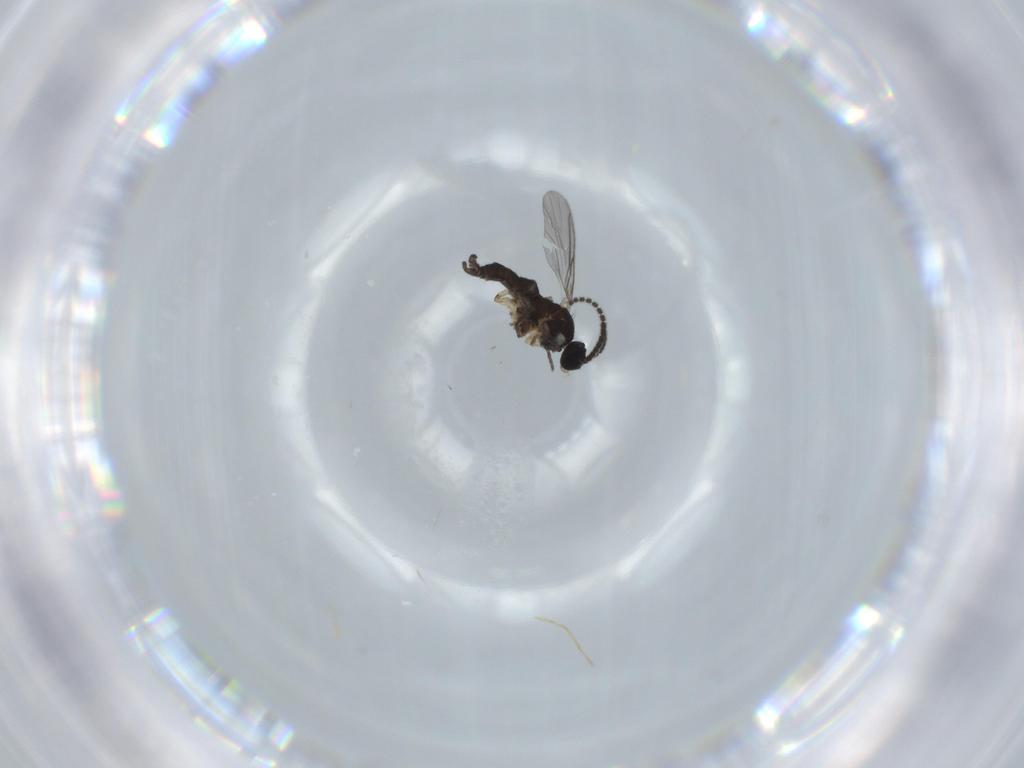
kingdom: Animalia
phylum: Arthropoda
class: Insecta
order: Diptera
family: Sciaridae
